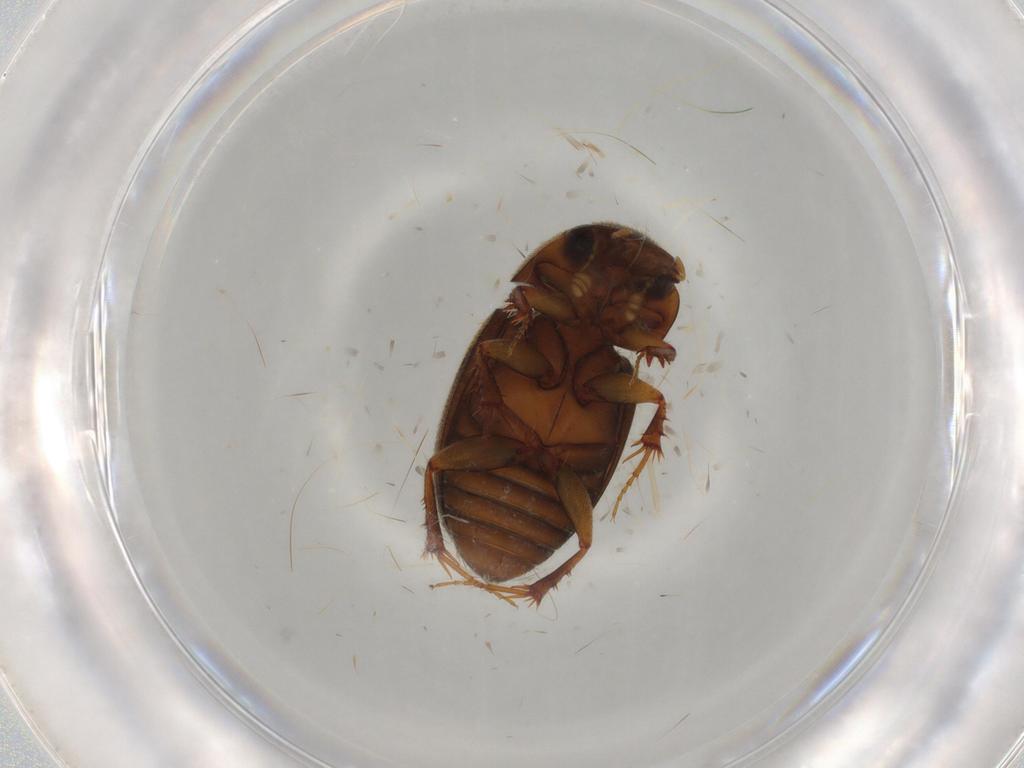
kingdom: Animalia
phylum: Arthropoda
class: Insecta
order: Coleoptera
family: Scarabaeidae
